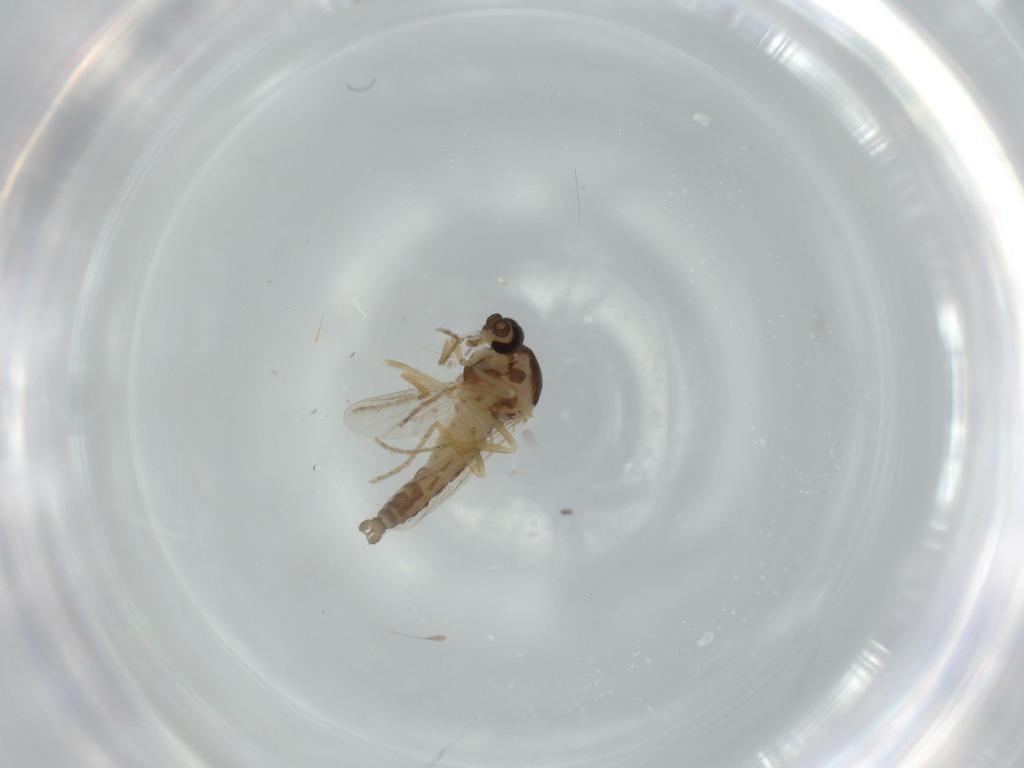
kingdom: Animalia
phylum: Arthropoda
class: Insecta
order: Diptera
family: Ceratopogonidae
